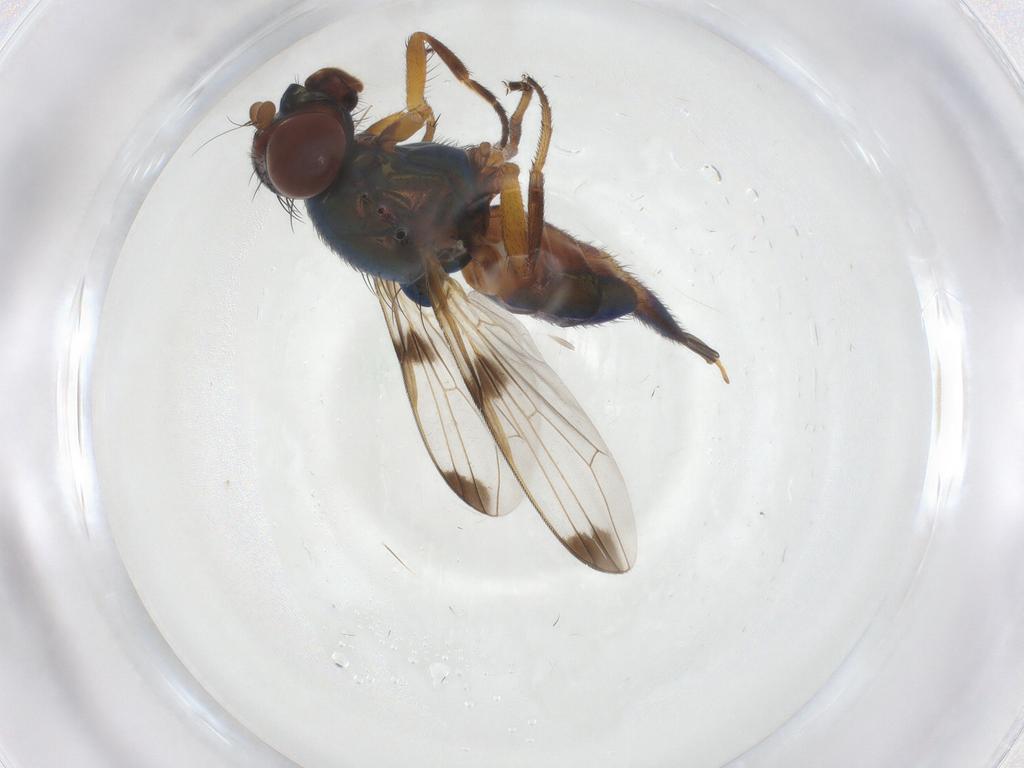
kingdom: Animalia
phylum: Arthropoda
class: Insecta
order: Diptera
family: Ulidiidae
